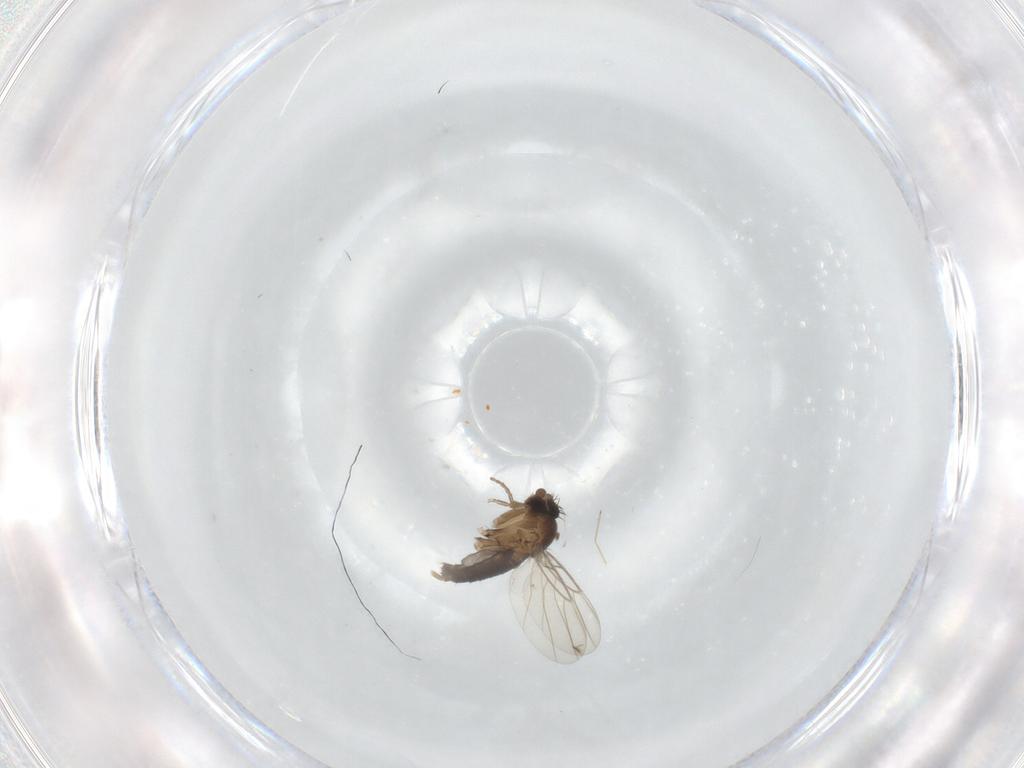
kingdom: Animalia
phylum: Arthropoda
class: Insecta
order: Diptera
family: Phoridae
